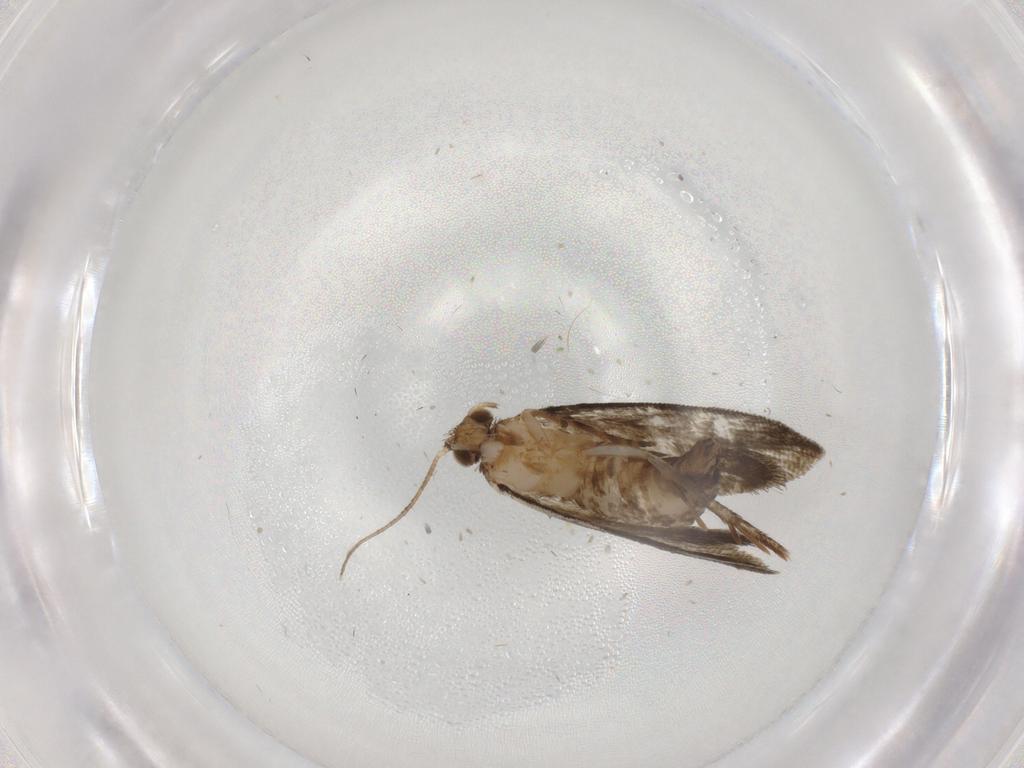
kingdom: Animalia
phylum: Arthropoda
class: Insecta
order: Lepidoptera
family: Crambidae
